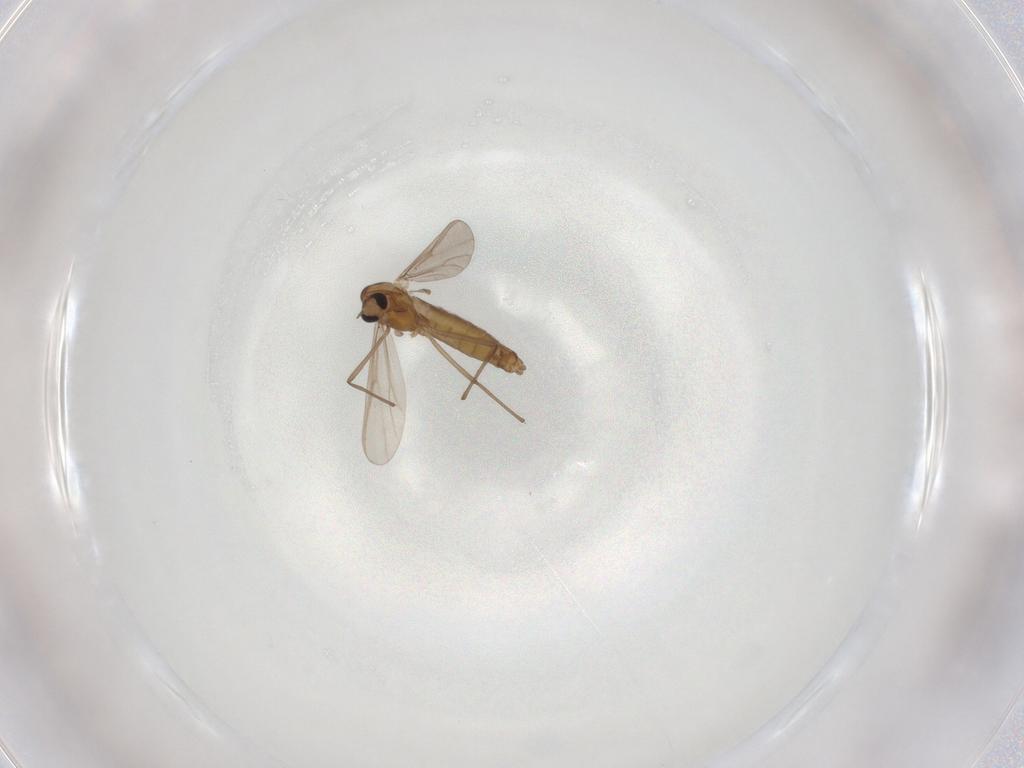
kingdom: Animalia
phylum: Arthropoda
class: Insecta
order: Diptera
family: Chironomidae
